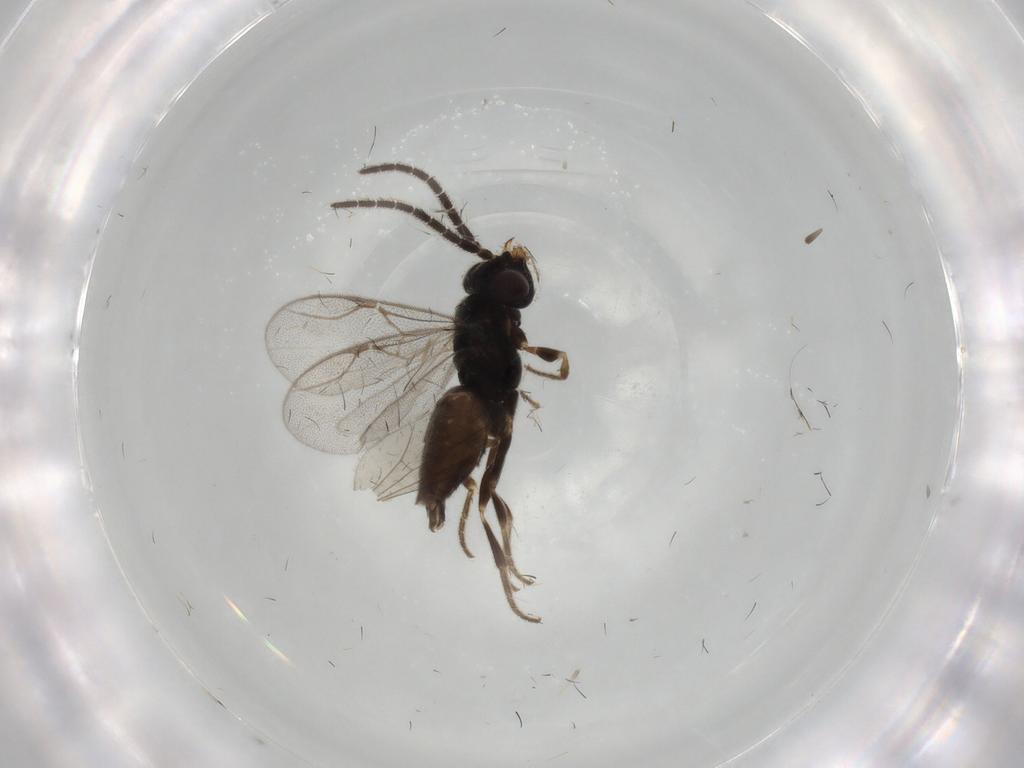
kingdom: Animalia
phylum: Arthropoda
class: Insecta
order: Hymenoptera
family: Dryinidae
